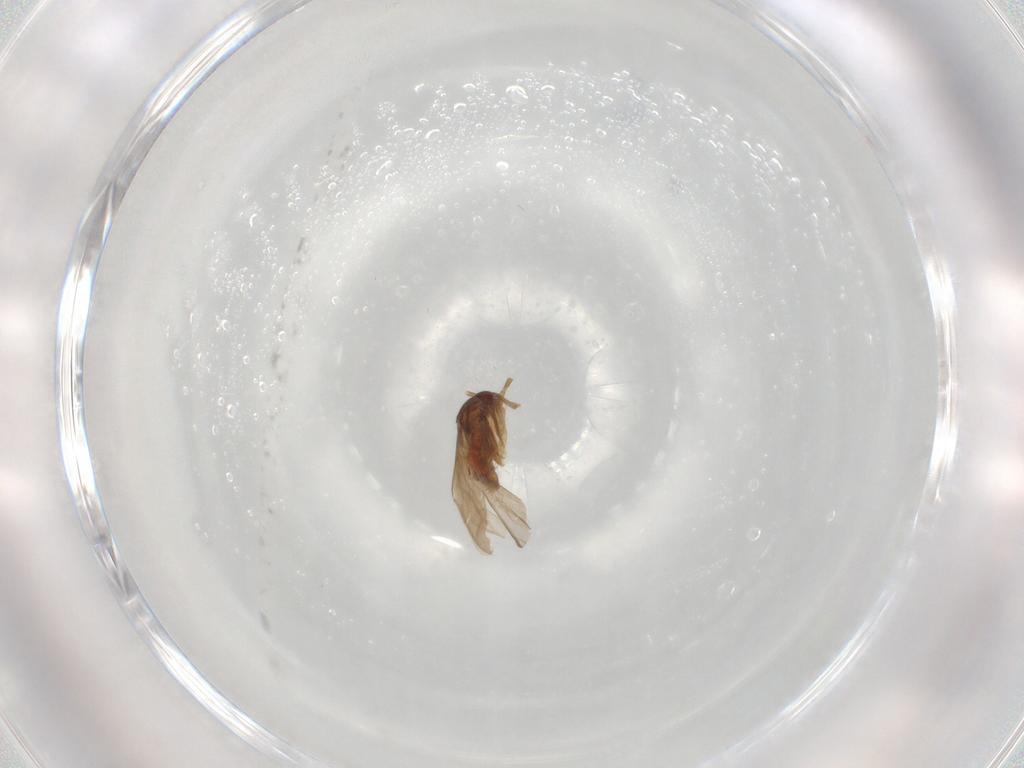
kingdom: Animalia
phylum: Arthropoda
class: Insecta
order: Hemiptera
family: Ceratocombidae
